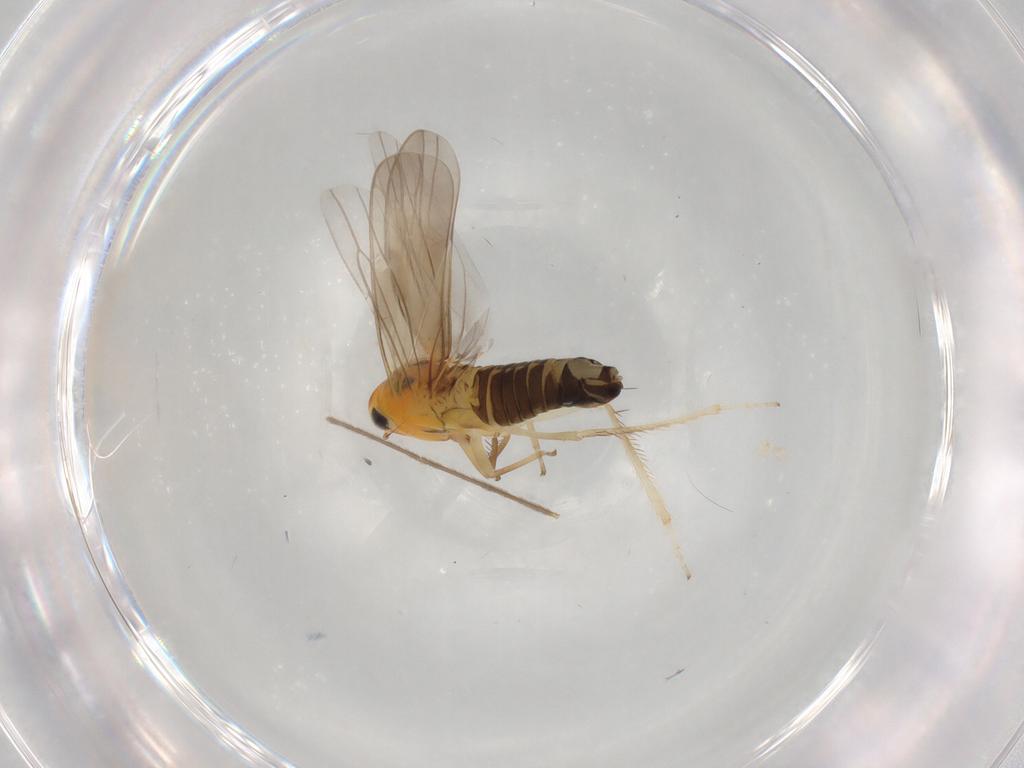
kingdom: Animalia
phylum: Arthropoda
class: Insecta
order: Hemiptera
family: Cicadellidae
